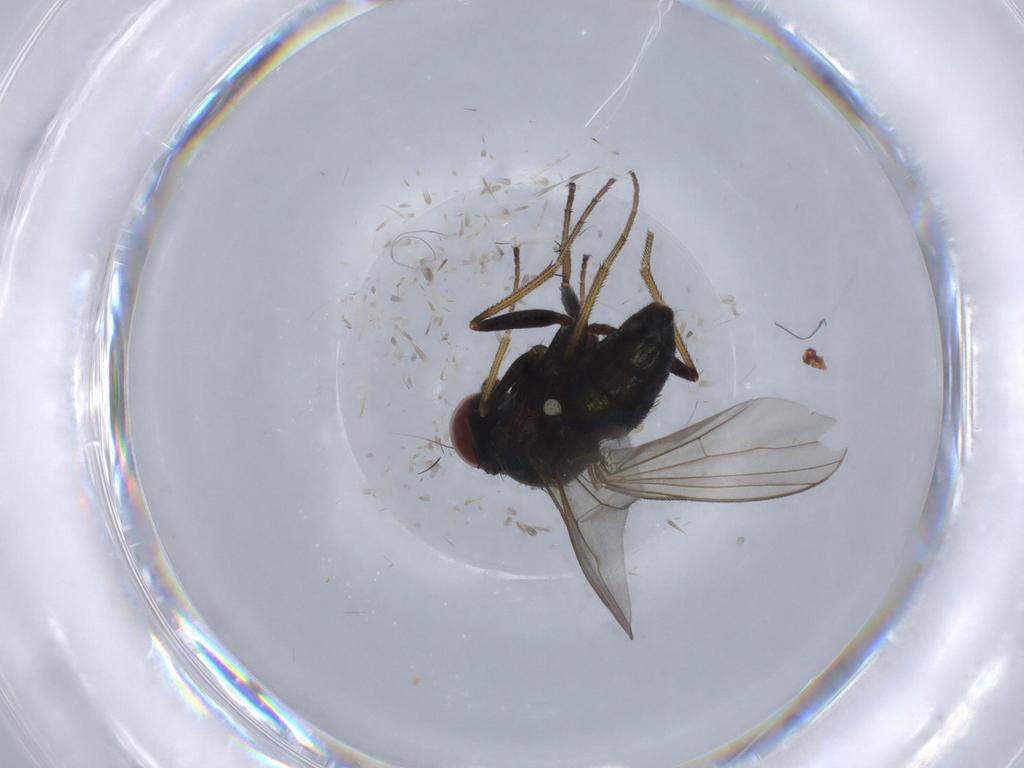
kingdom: Animalia
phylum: Arthropoda
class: Insecta
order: Diptera
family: Dolichopodidae
